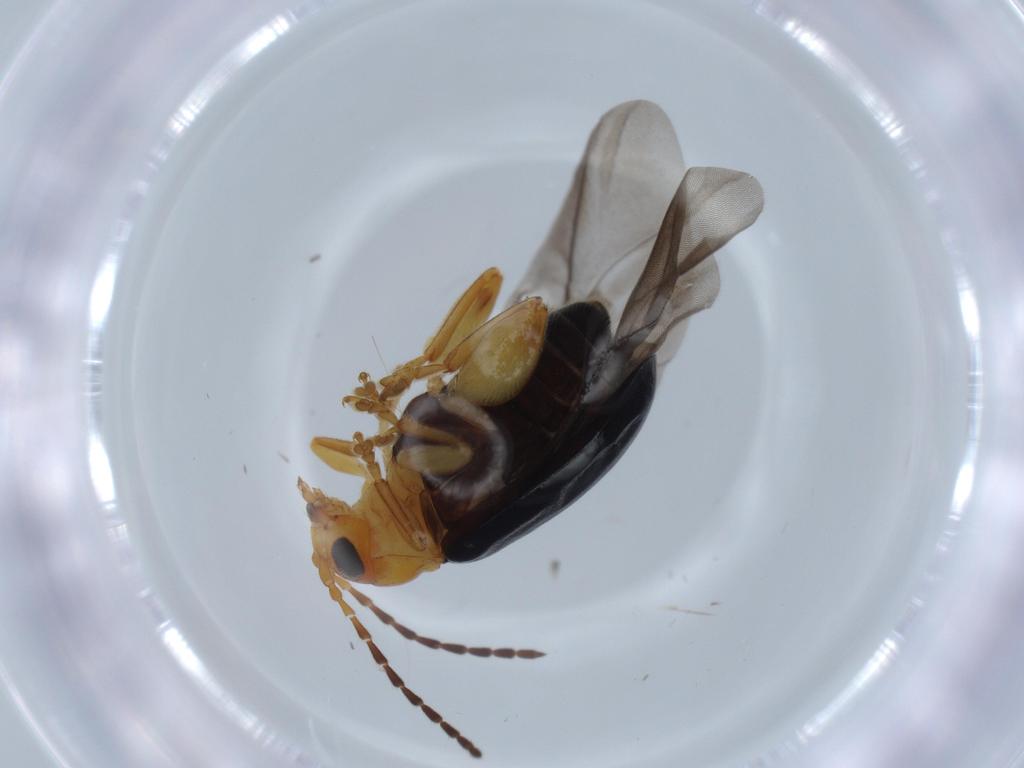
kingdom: Animalia
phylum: Arthropoda
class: Insecta
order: Coleoptera
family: Chrysomelidae
